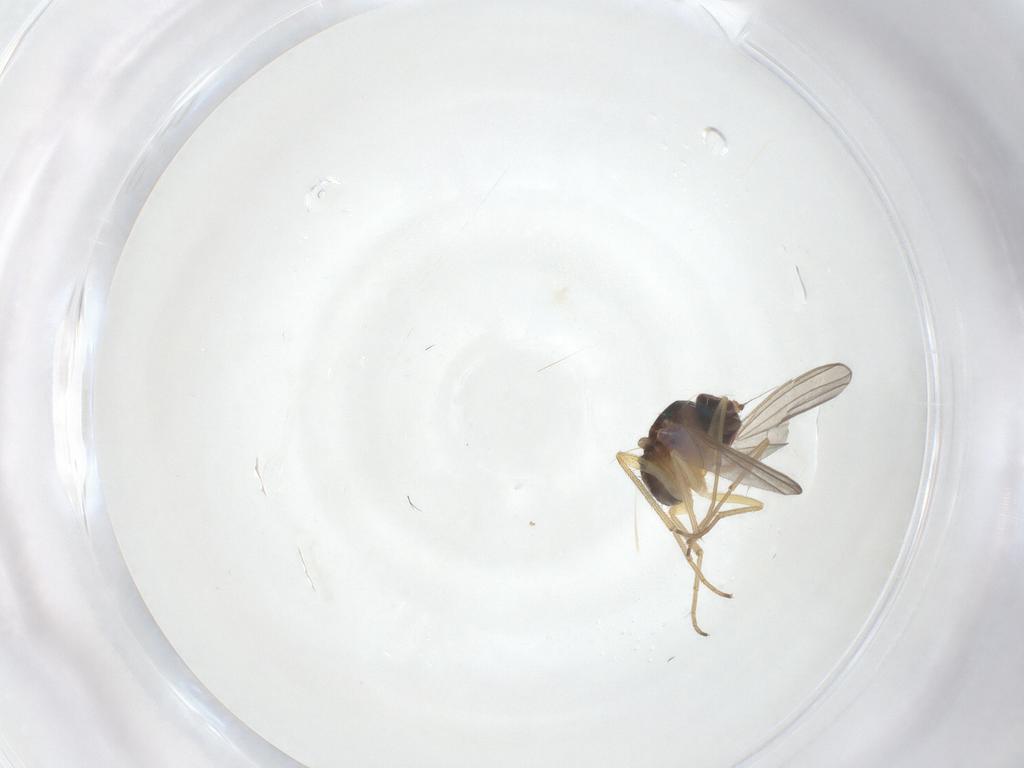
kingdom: Animalia
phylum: Arthropoda
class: Insecta
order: Diptera
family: Dolichopodidae
